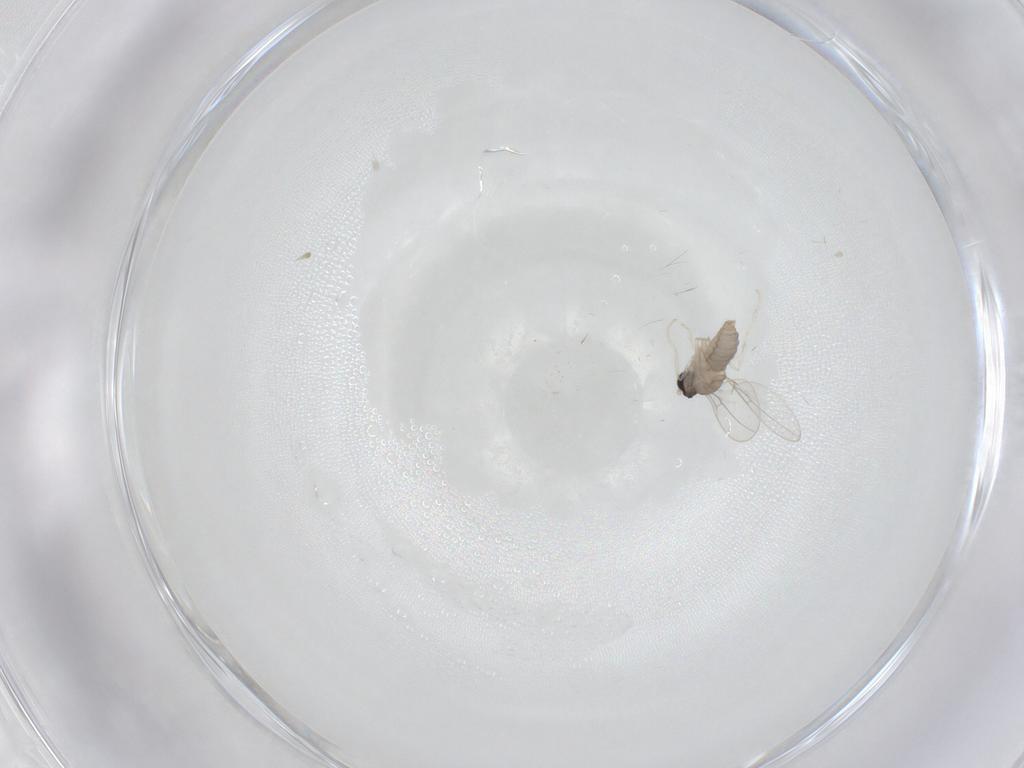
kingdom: Animalia
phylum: Arthropoda
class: Insecta
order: Diptera
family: Cecidomyiidae
